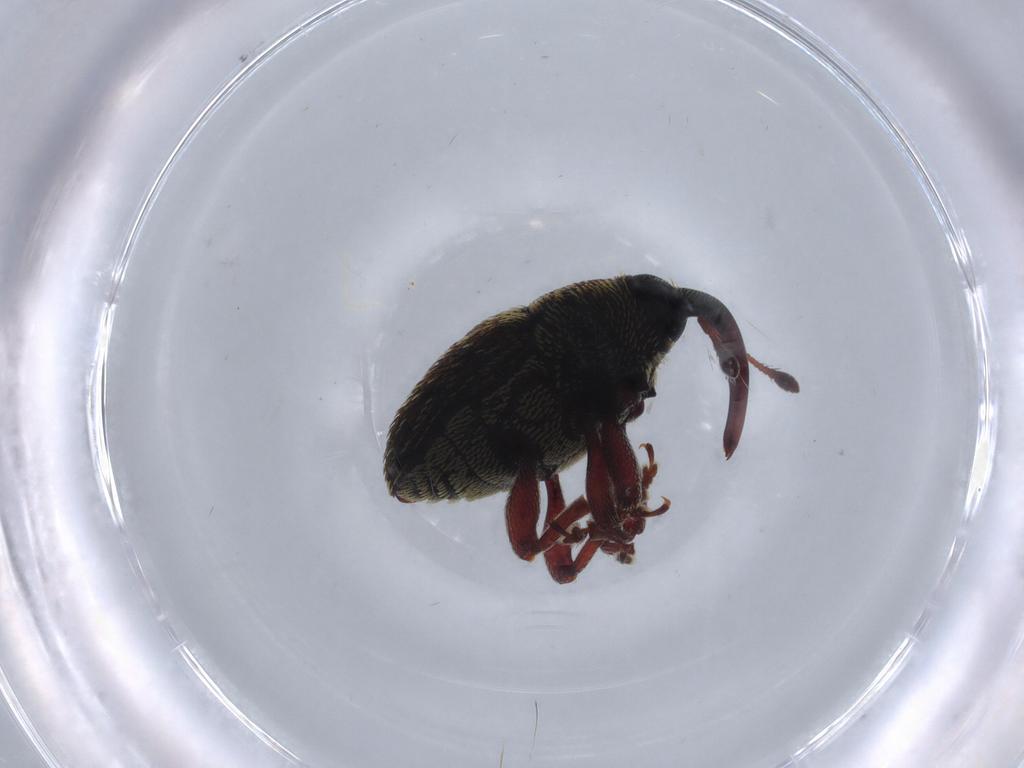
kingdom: Animalia
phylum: Arthropoda
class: Insecta
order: Coleoptera
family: Curculionidae
